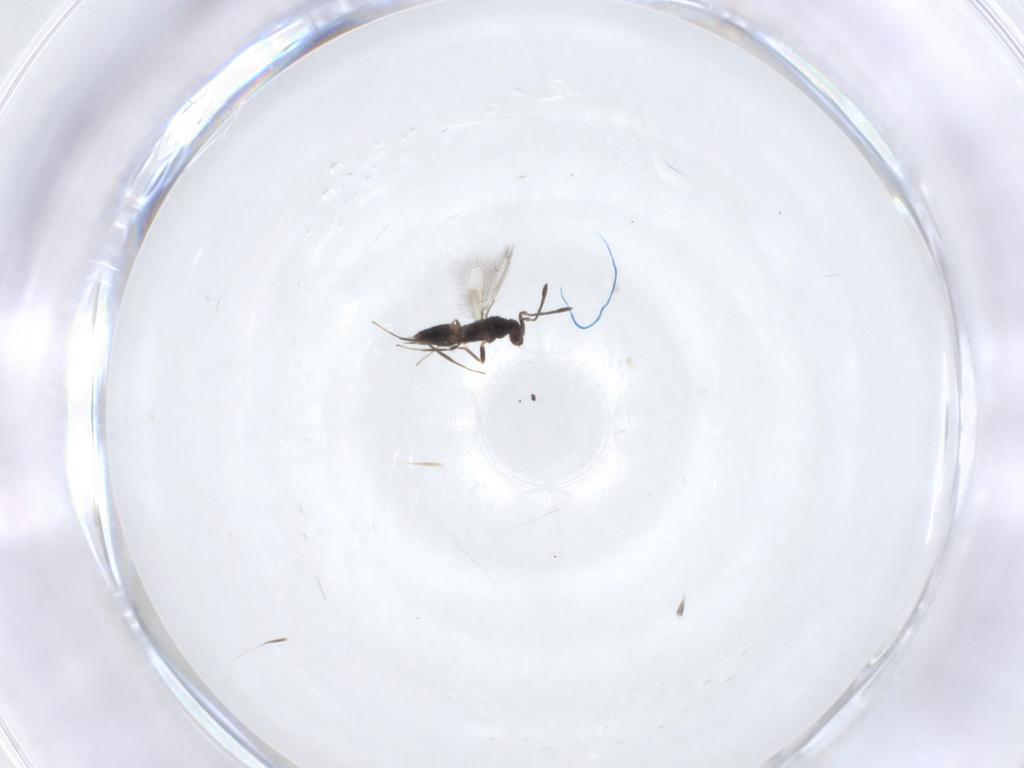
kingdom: Animalia
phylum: Arthropoda
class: Insecta
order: Hymenoptera
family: Mymaridae
